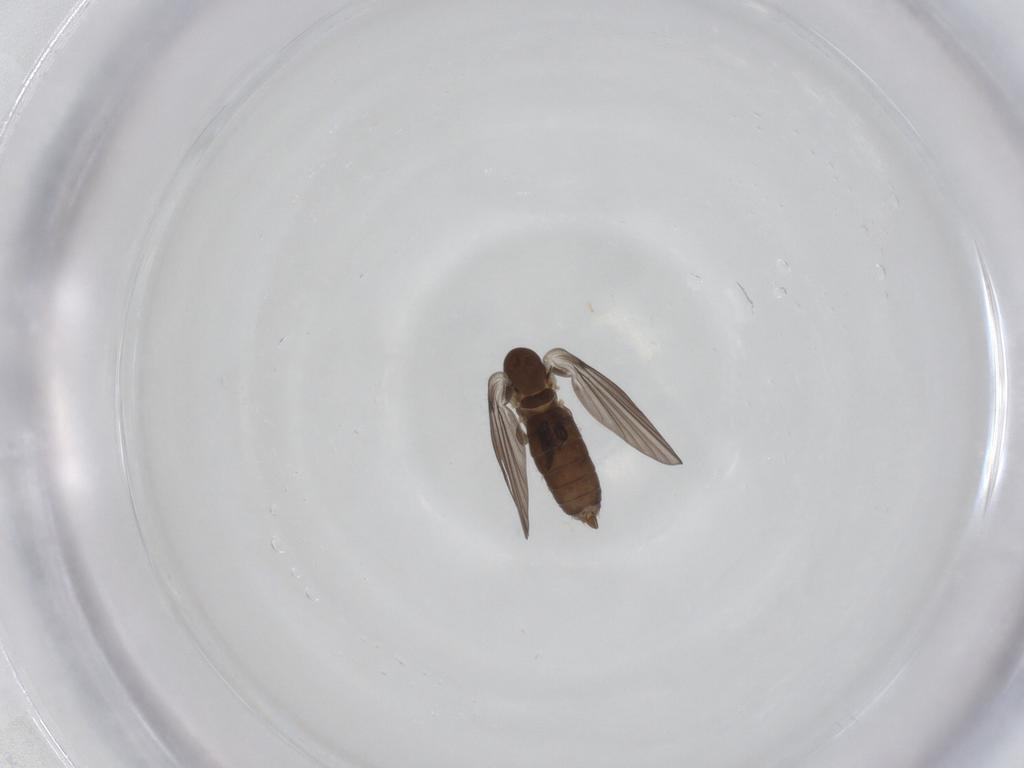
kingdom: Animalia
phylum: Arthropoda
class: Insecta
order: Diptera
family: Psychodidae
